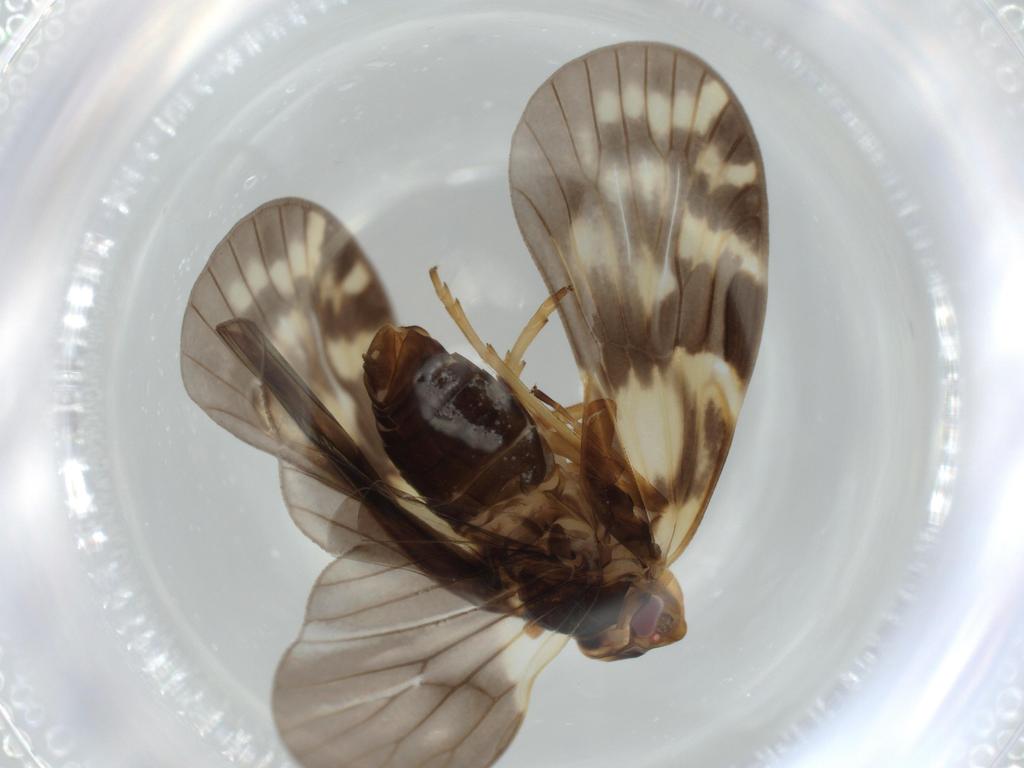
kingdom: Animalia
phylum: Arthropoda
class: Insecta
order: Hemiptera
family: Cixiidae
